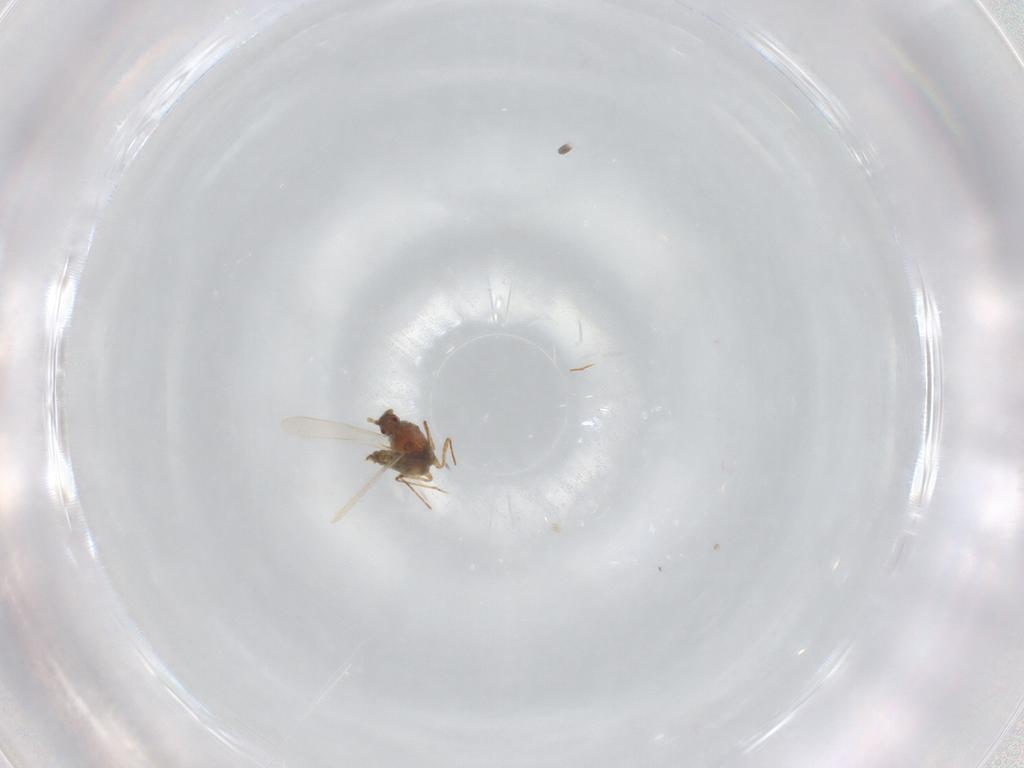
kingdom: Animalia
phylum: Arthropoda
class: Insecta
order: Hemiptera
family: Pseudococcidae
